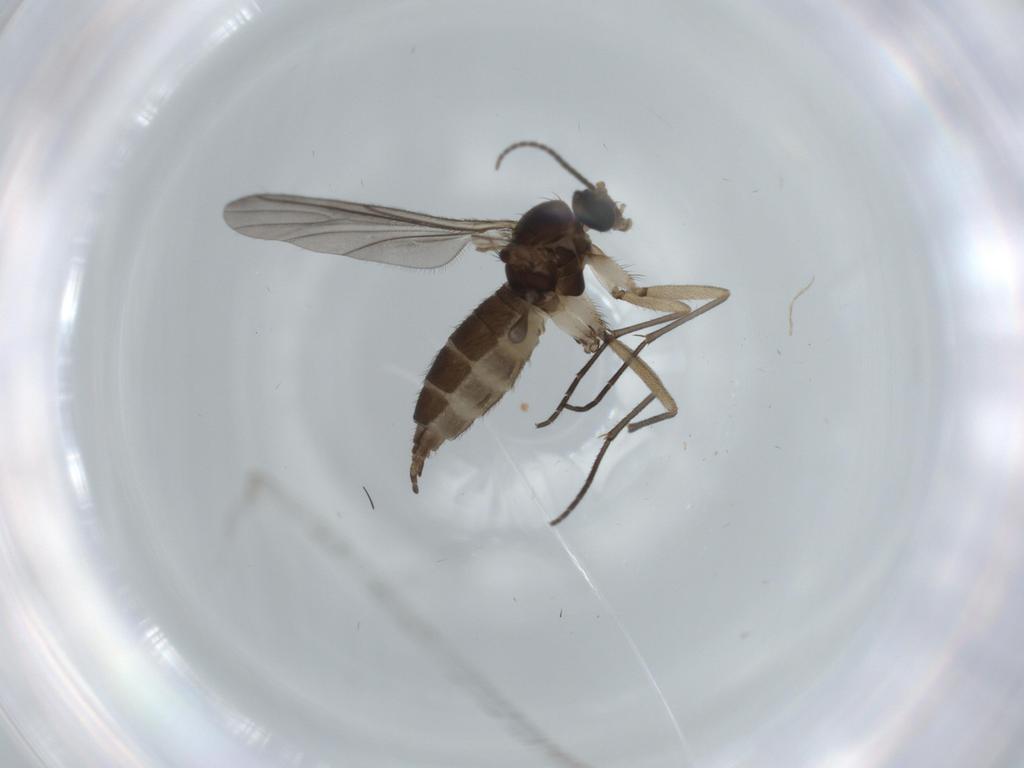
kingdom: Animalia
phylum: Arthropoda
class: Insecta
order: Diptera
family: Sciaridae
